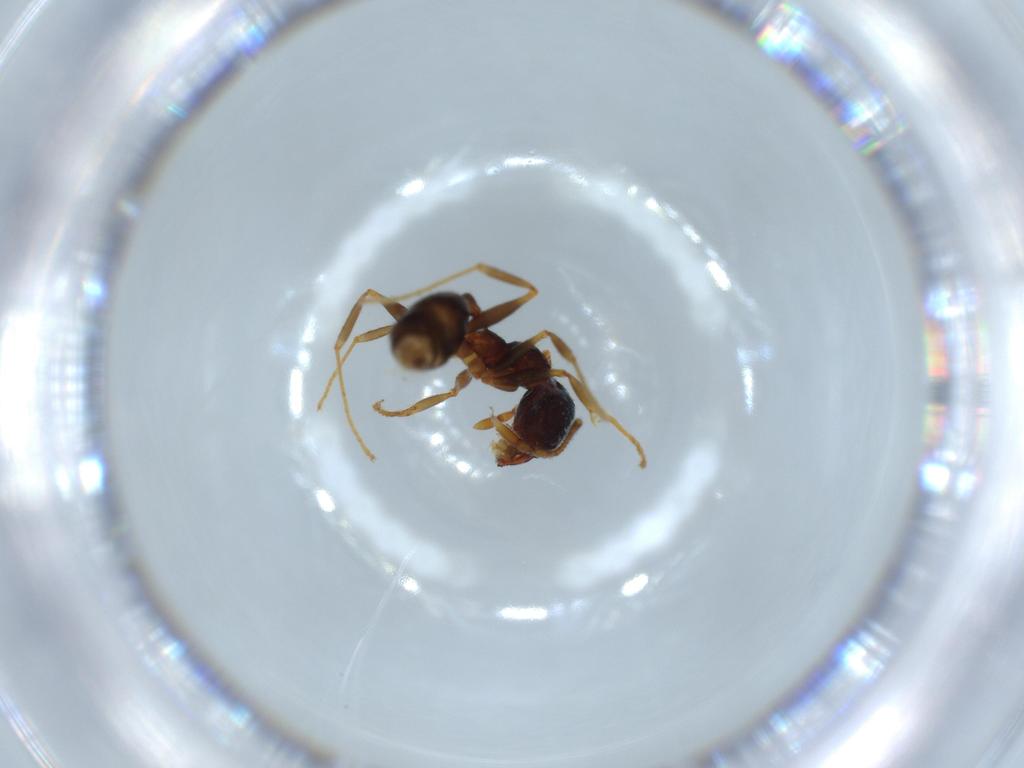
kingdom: Animalia
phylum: Arthropoda
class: Insecta
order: Hymenoptera
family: Formicidae
